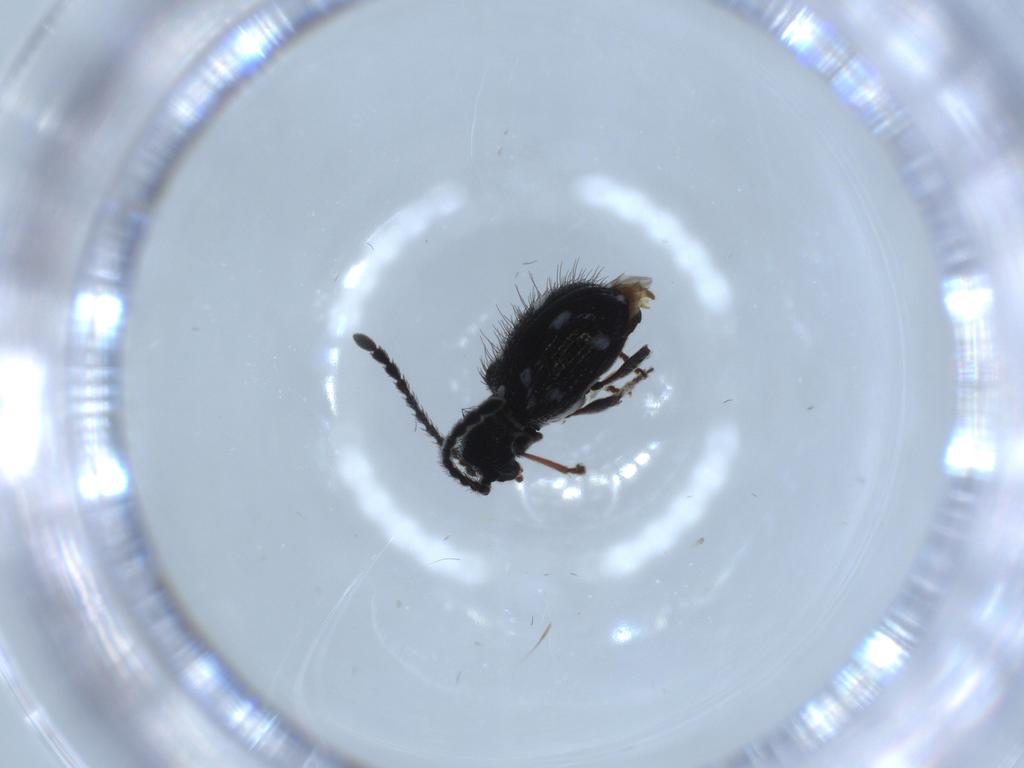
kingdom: Animalia
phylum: Arthropoda
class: Insecta
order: Coleoptera
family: Ptinidae
